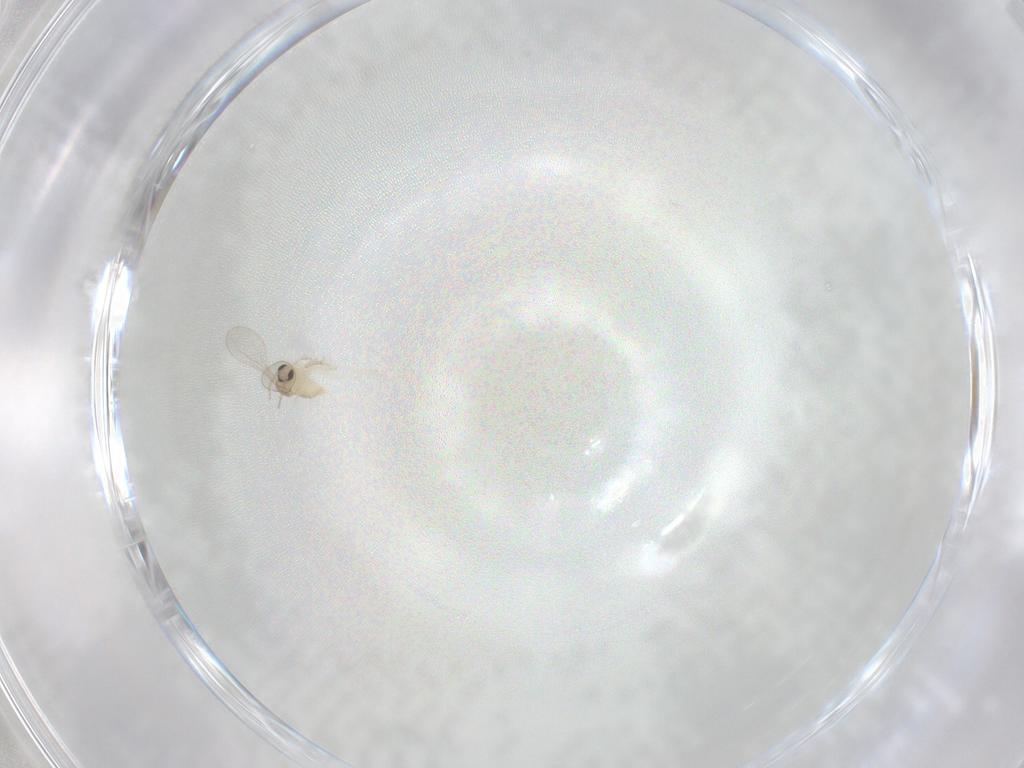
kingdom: Animalia
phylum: Arthropoda
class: Insecta
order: Diptera
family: Cecidomyiidae
